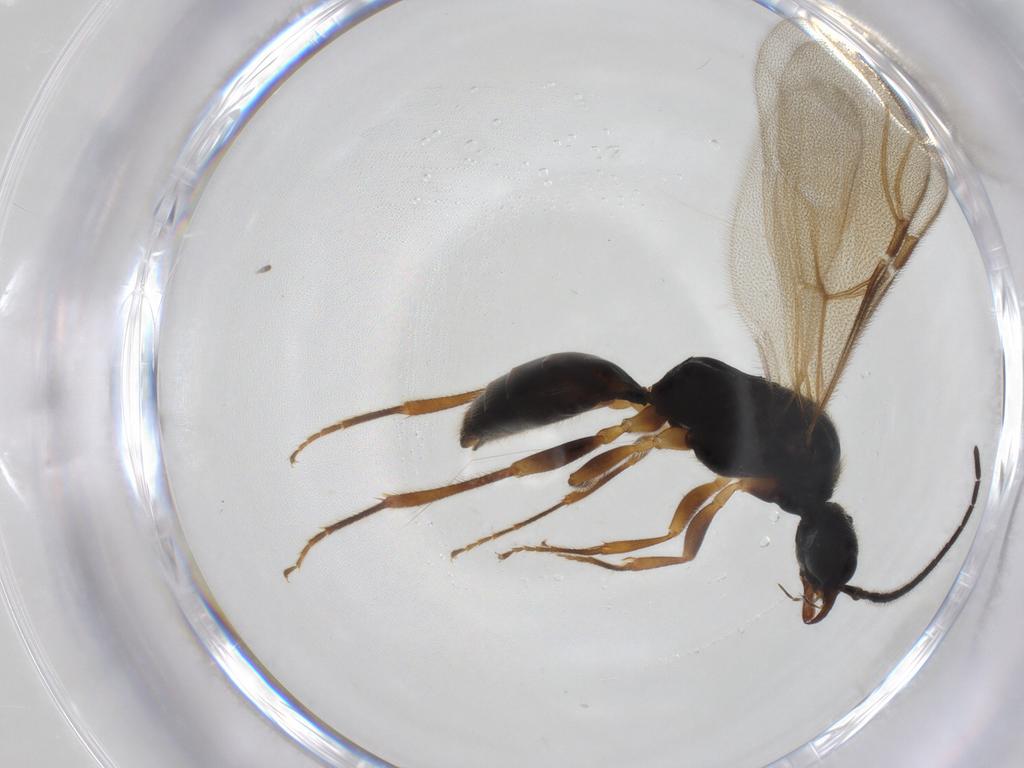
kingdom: Animalia
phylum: Arthropoda
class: Insecta
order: Hymenoptera
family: Bethylidae
